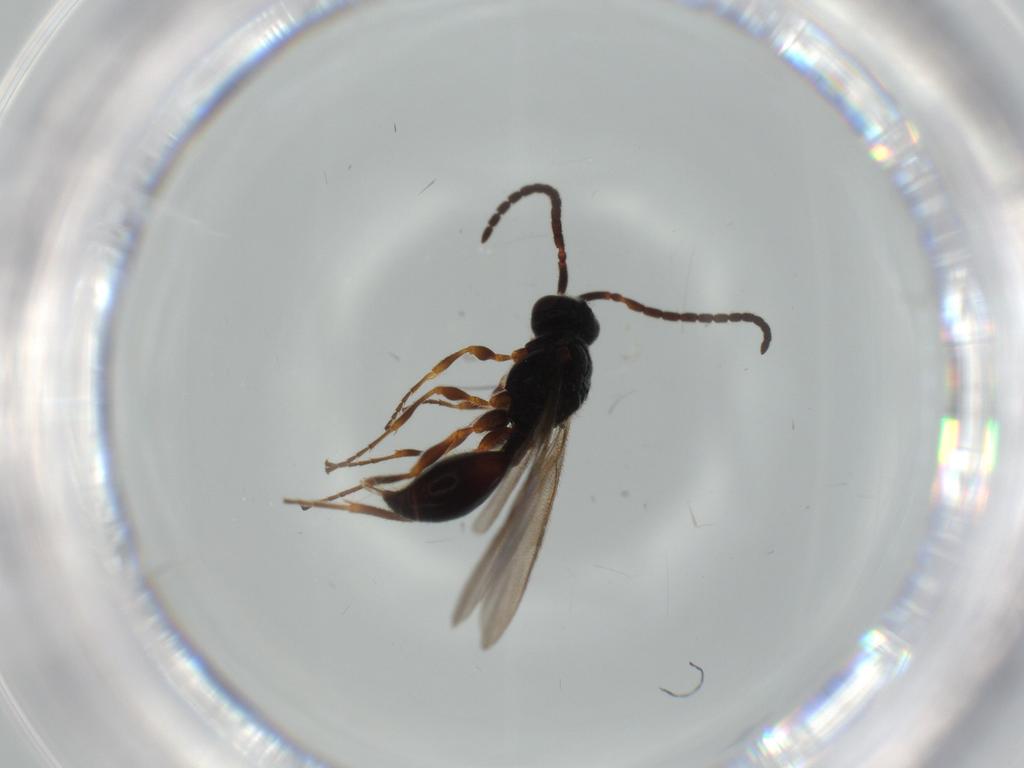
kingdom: Animalia
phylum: Arthropoda
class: Insecta
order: Hymenoptera
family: Diapriidae
